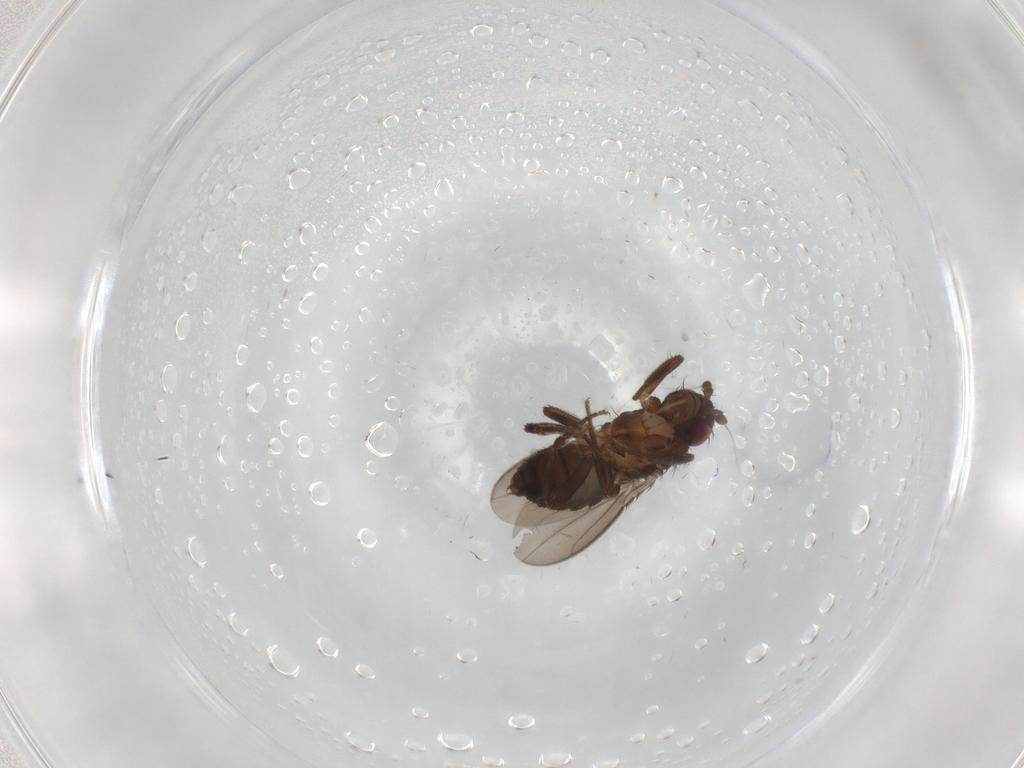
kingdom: Animalia
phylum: Arthropoda
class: Insecta
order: Diptera
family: Sphaeroceridae
